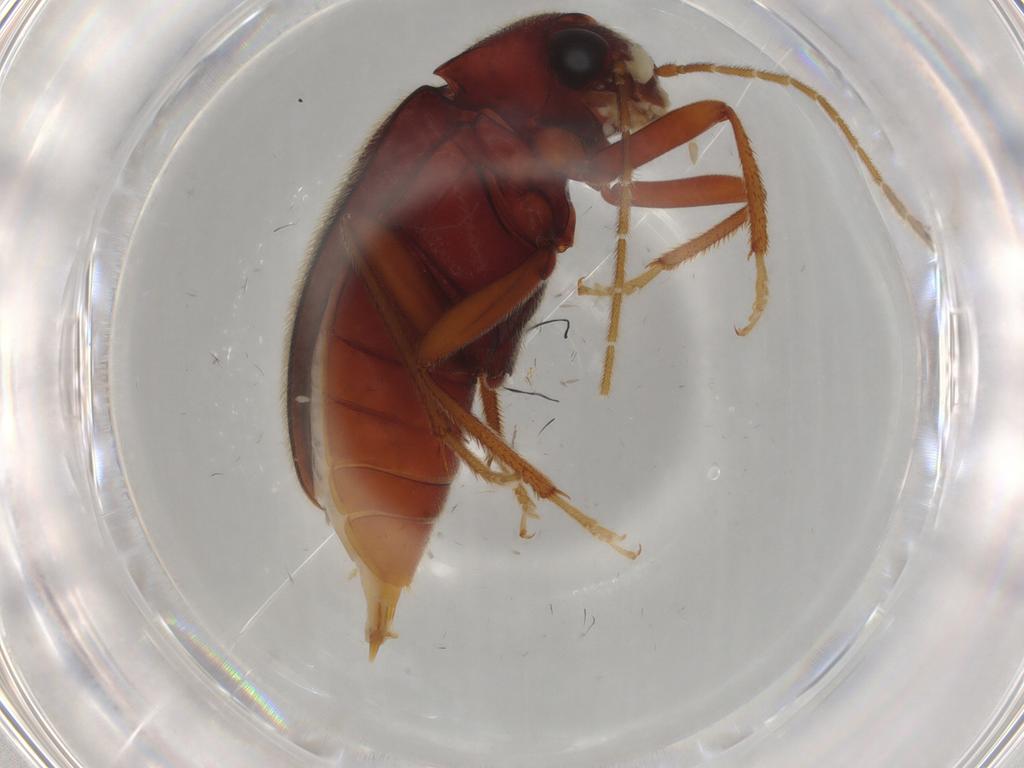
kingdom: Animalia
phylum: Arthropoda
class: Insecta
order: Coleoptera
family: Ptilodactylidae
